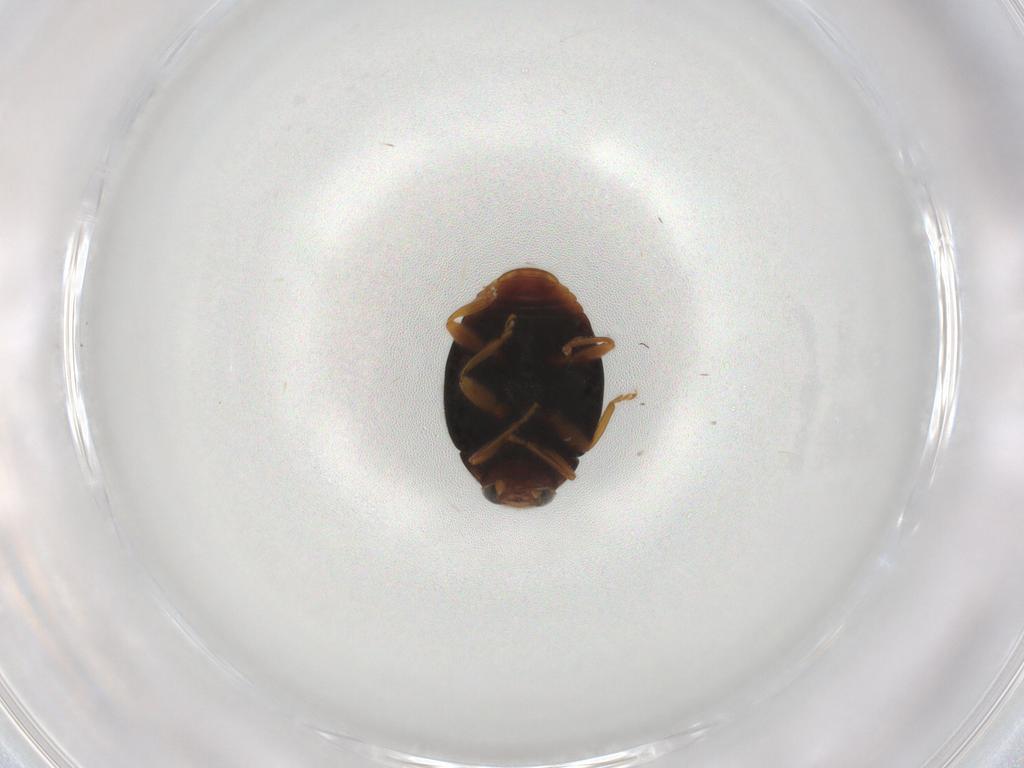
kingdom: Animalia
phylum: Arthropoda
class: Insecta
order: Coleoptera
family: Coccinellidae
